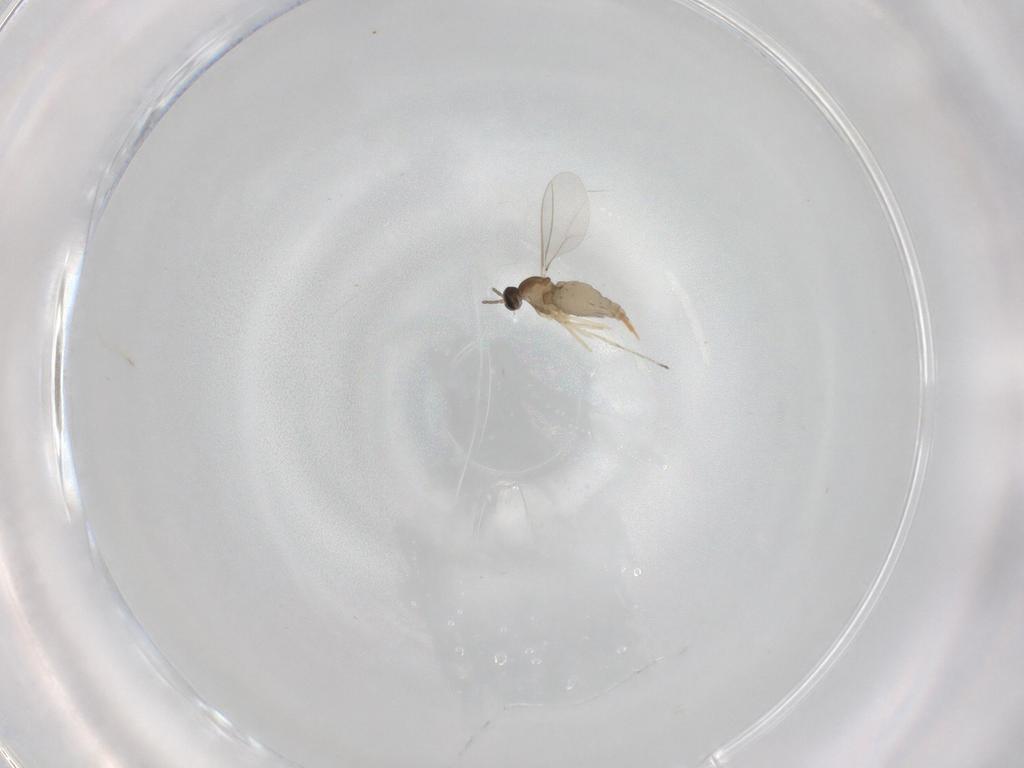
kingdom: Animalia
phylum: Arthropoda
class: Insecta
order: Diptera
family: Cecidomyiidae
